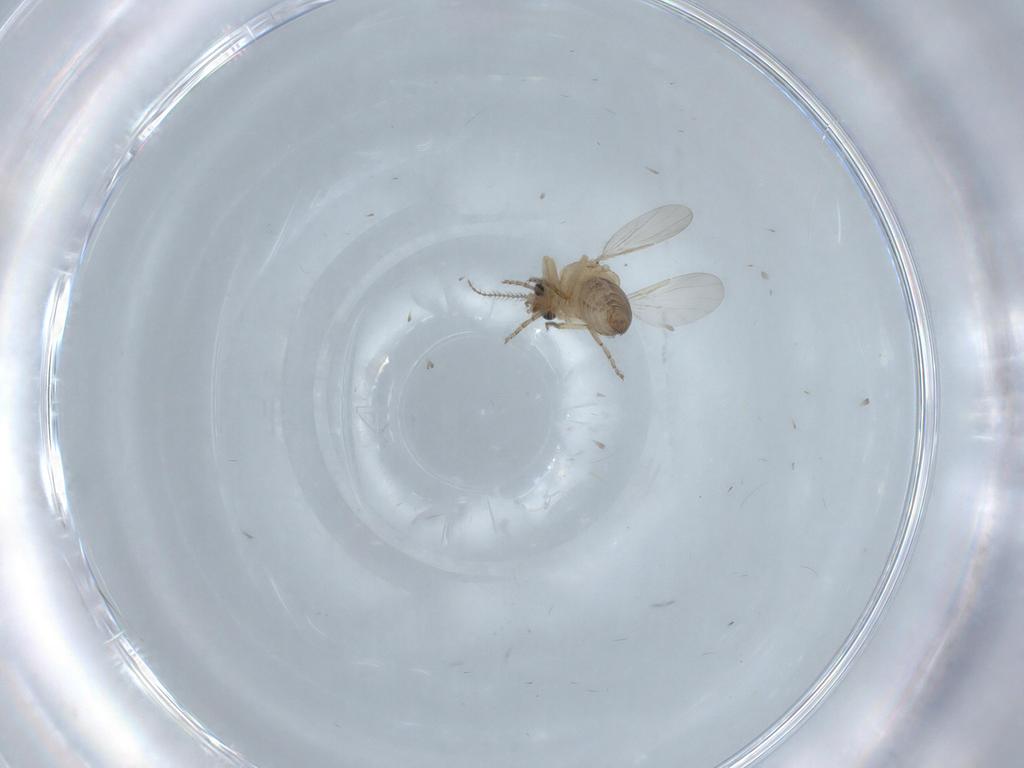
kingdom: Animalia
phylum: Arthropoda
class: Insecta
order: Diptera
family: Ceratopogonidae
